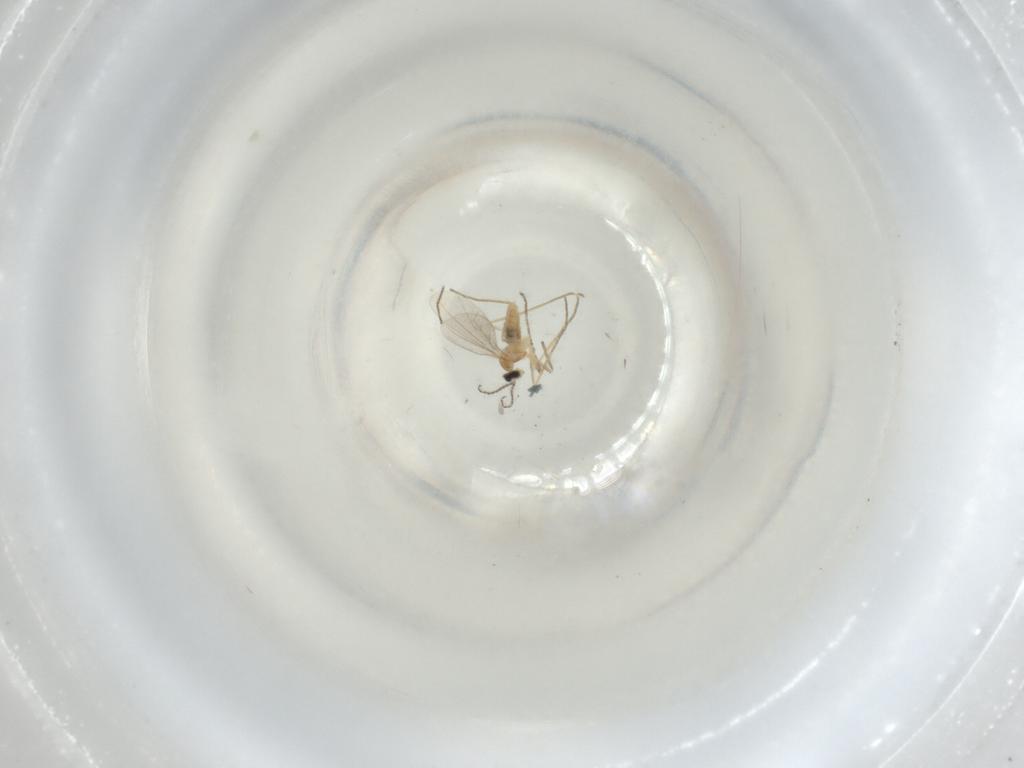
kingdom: Animalia
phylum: Arthropoda
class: Insecta
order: Diptera
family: Cecidomyiidae
